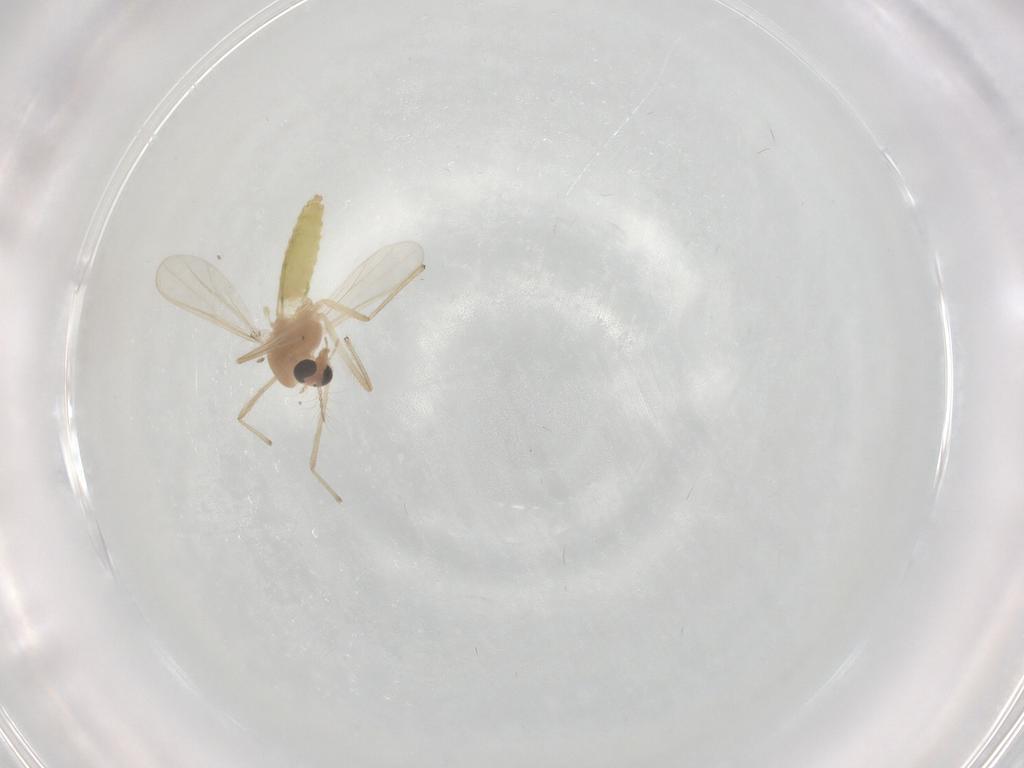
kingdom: Animalia
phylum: Arthropoda
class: Insecta
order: Diptera
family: Chironomidae
